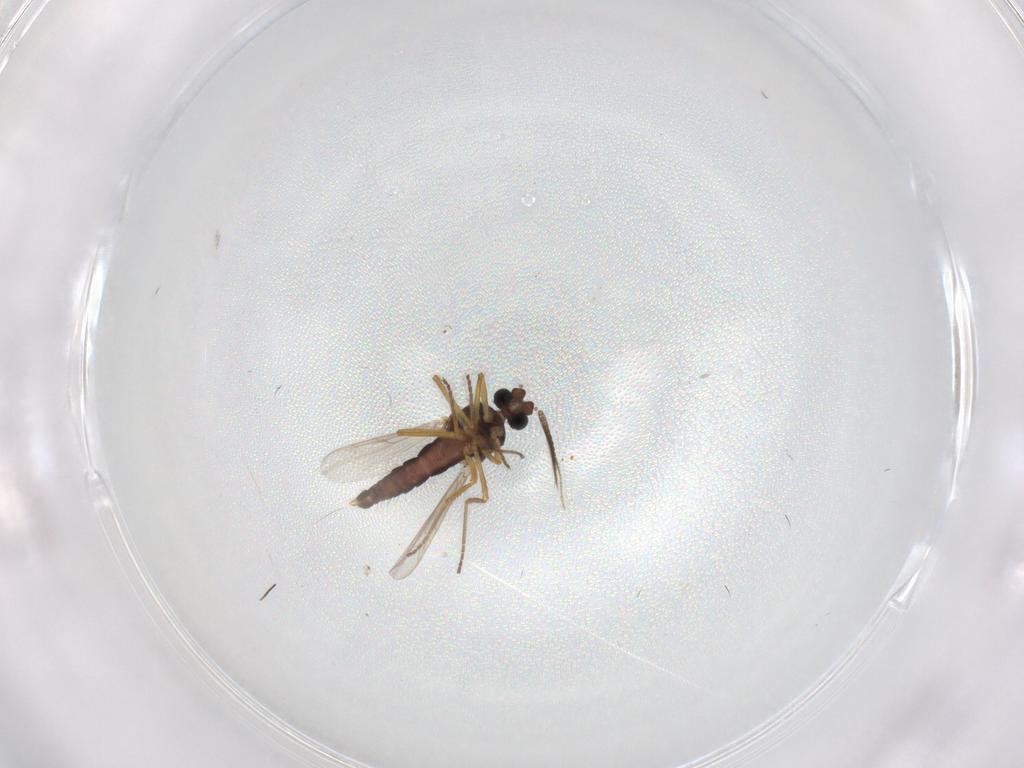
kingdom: Animalia
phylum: Arthropoda
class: Insecta
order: Diptera
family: Ceratopogonidae
